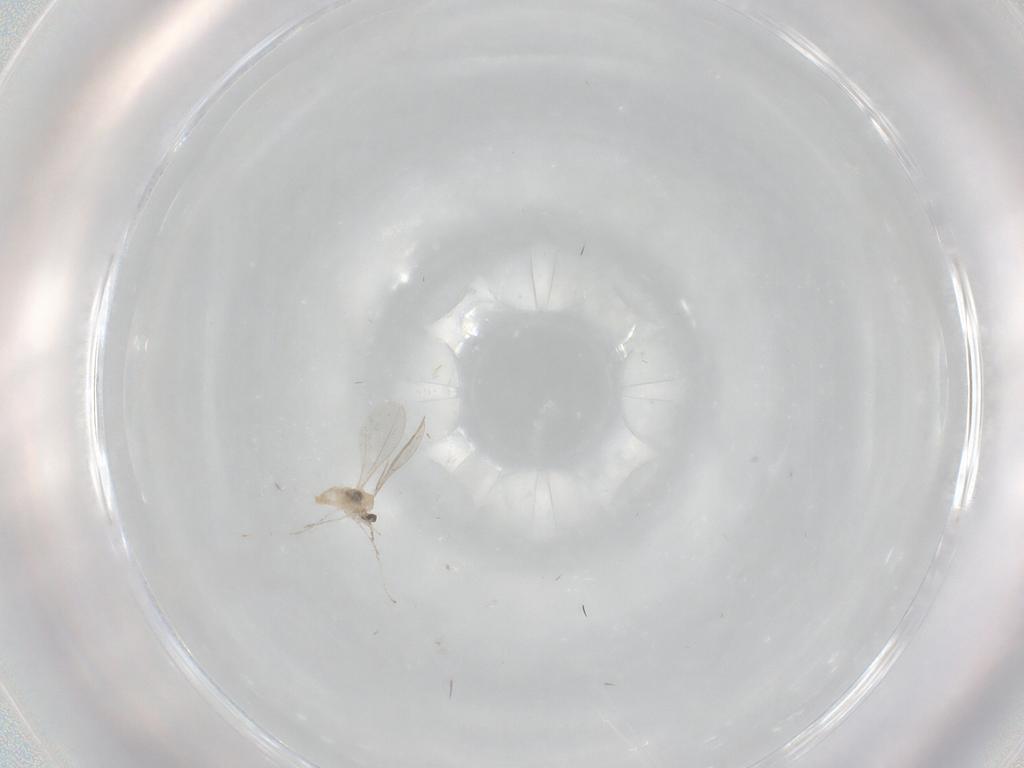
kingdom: Animalia
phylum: Arthropoda
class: Insecta
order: Diptera
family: Cecidomyiidae
